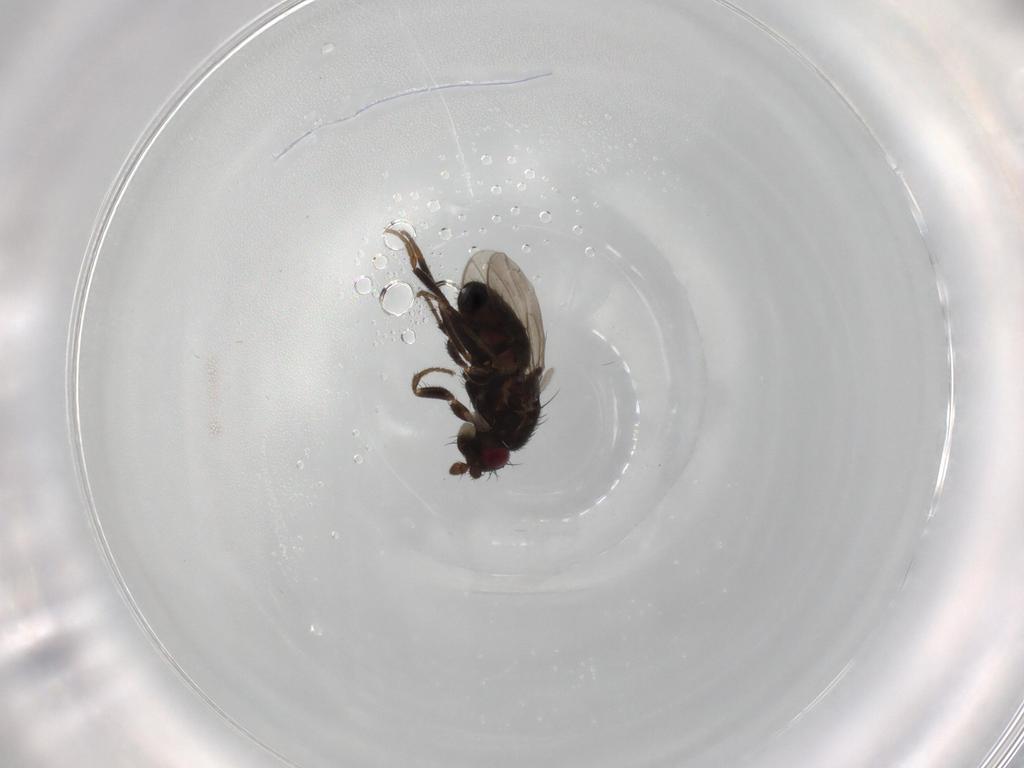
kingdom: Animalia
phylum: Arthropoda
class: Insecta
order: Diptera
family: Sphaeroceridae
